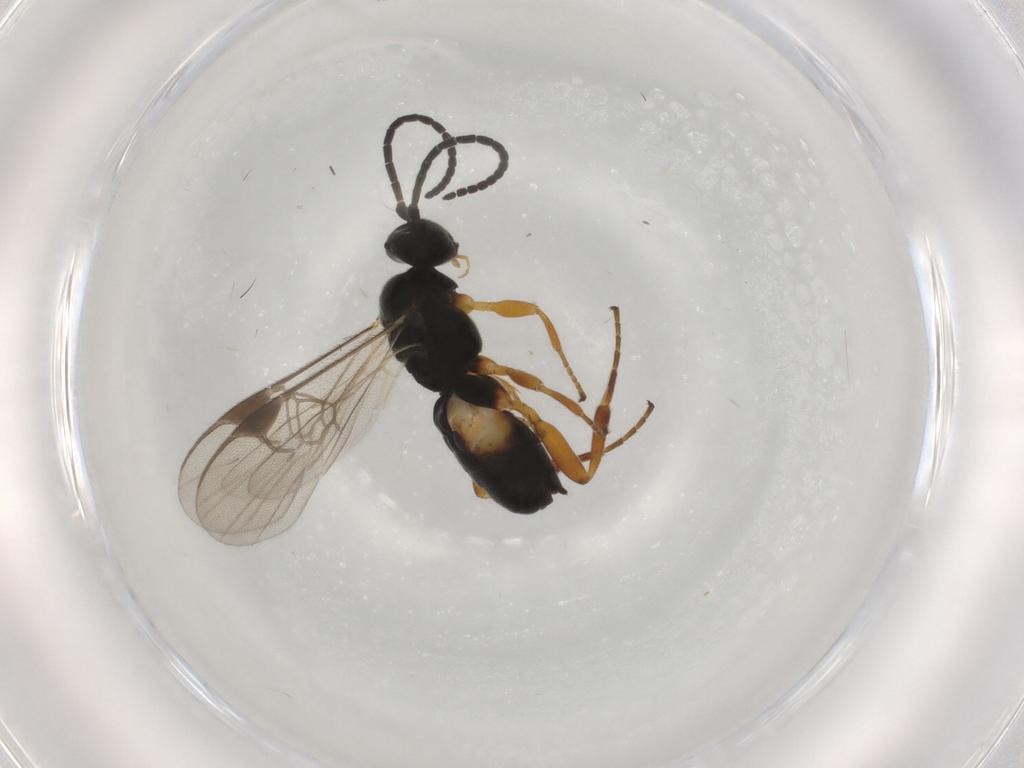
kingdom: Animalia
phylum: Arthropoda
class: Insecta
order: Hymenoptera
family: Braconidae
